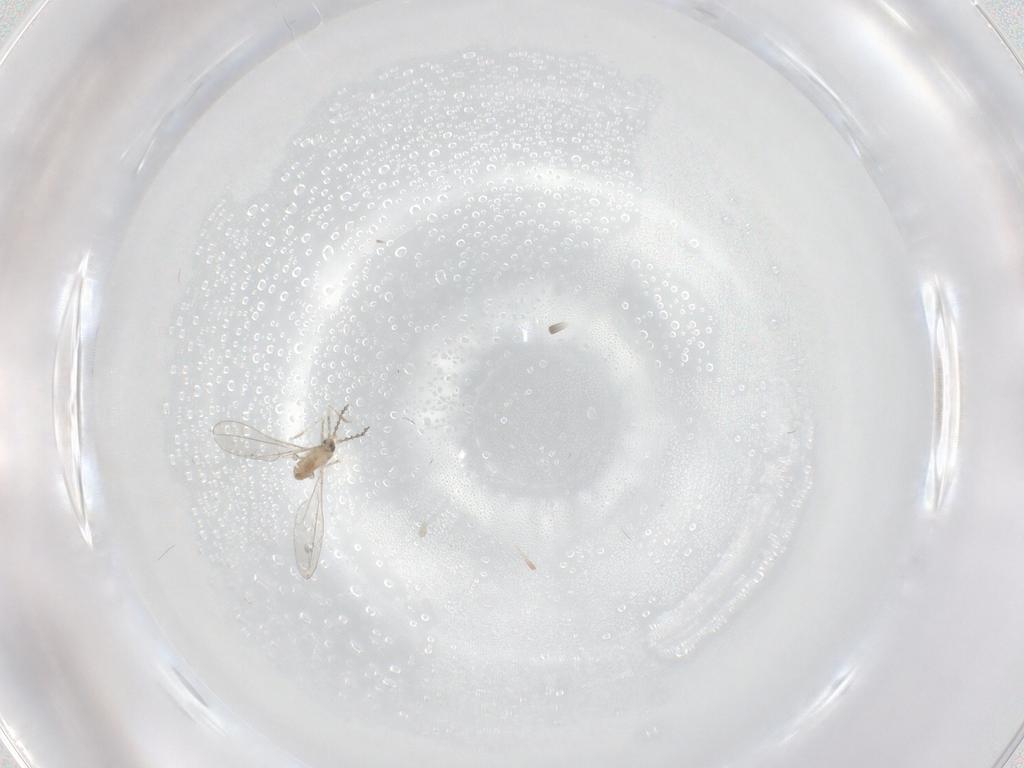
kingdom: Animalia
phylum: Arthropoda
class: Insecta
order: Diptera
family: Cecidomyiidae
